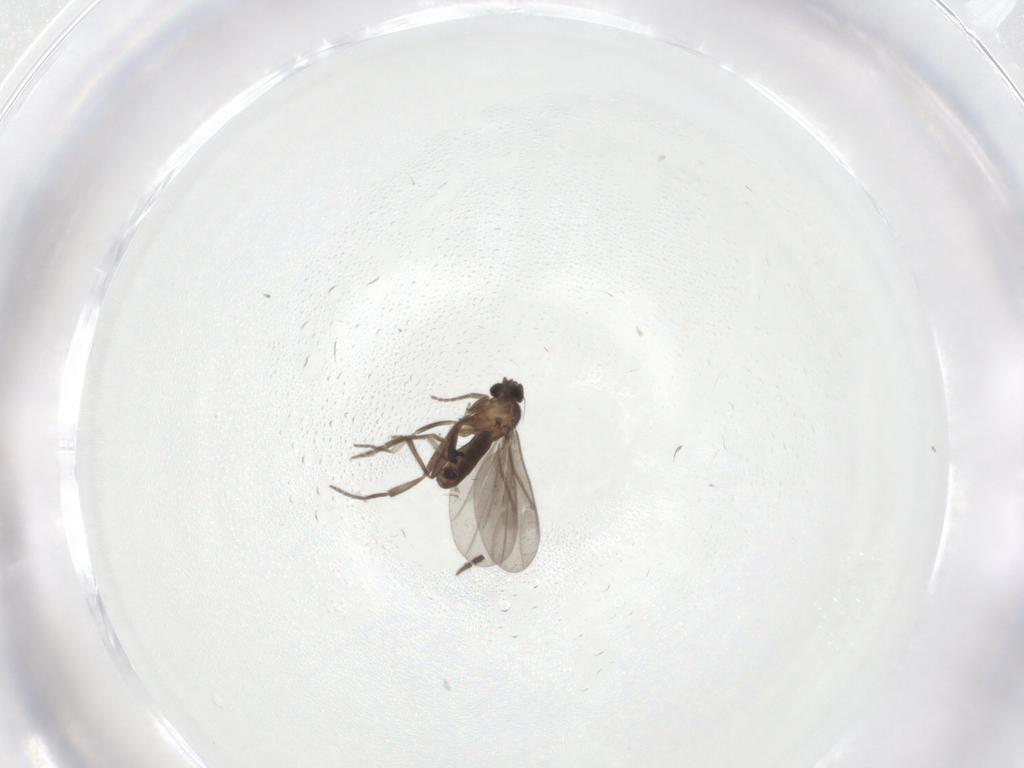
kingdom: Animalia
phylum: Arthropoda
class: Insecta
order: Diptera
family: Phoridae
